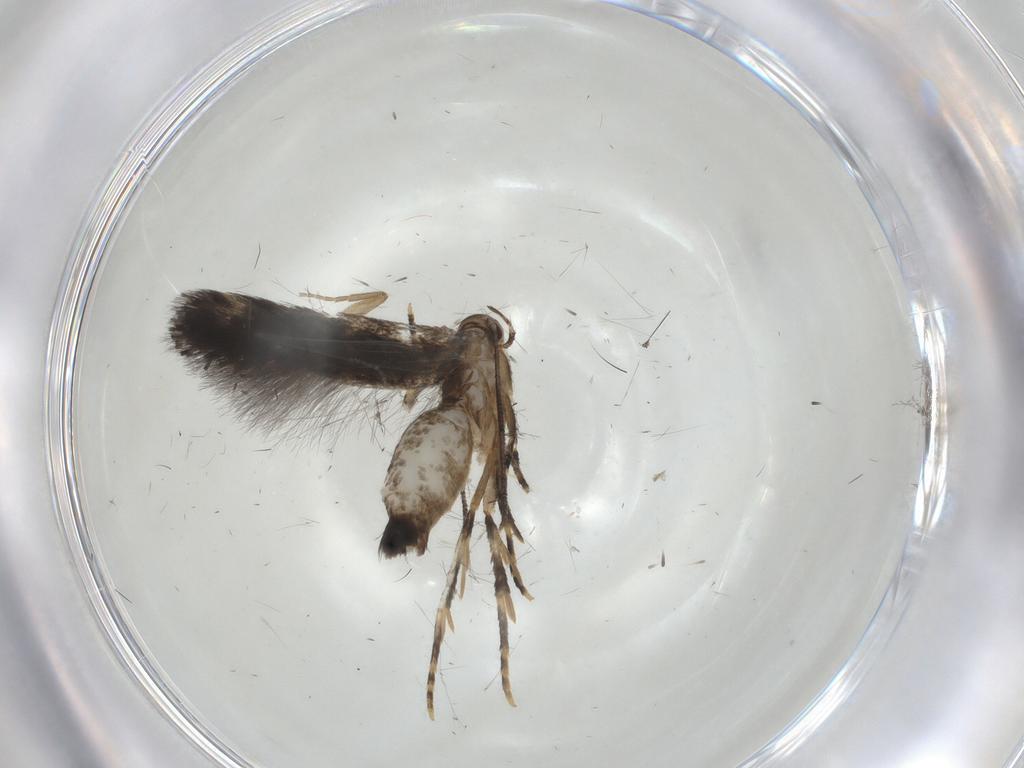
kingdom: Animalia
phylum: Arthropoda
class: Insecta
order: Lepidoptera
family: Elachistidae
